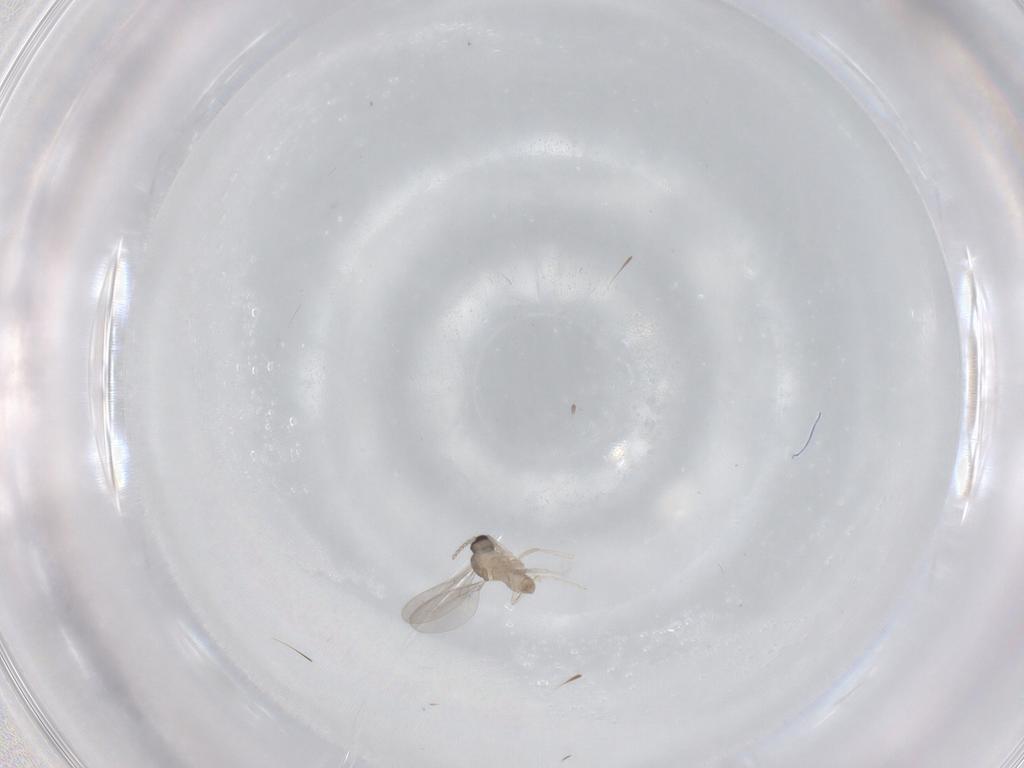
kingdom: Animalia
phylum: Arthropoda
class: Insecta
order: Diptera
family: Cecidomyiidae
